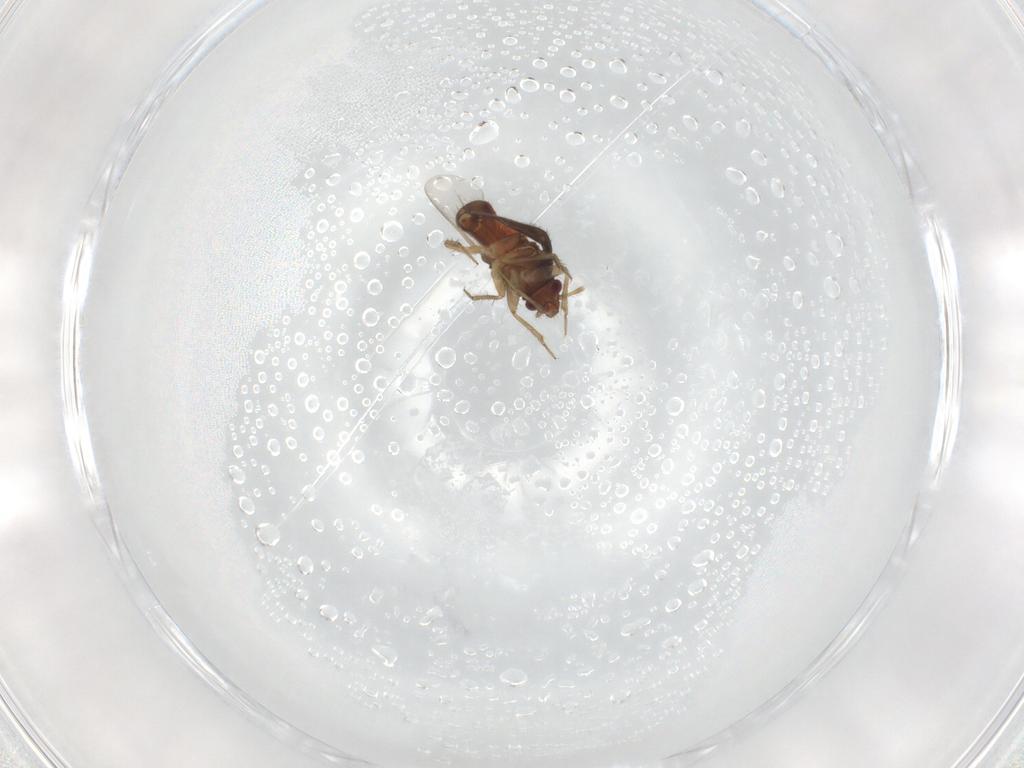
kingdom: Animalia
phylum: Arthropoda
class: Insecta
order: Hemiptera
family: Ceratocombidae
